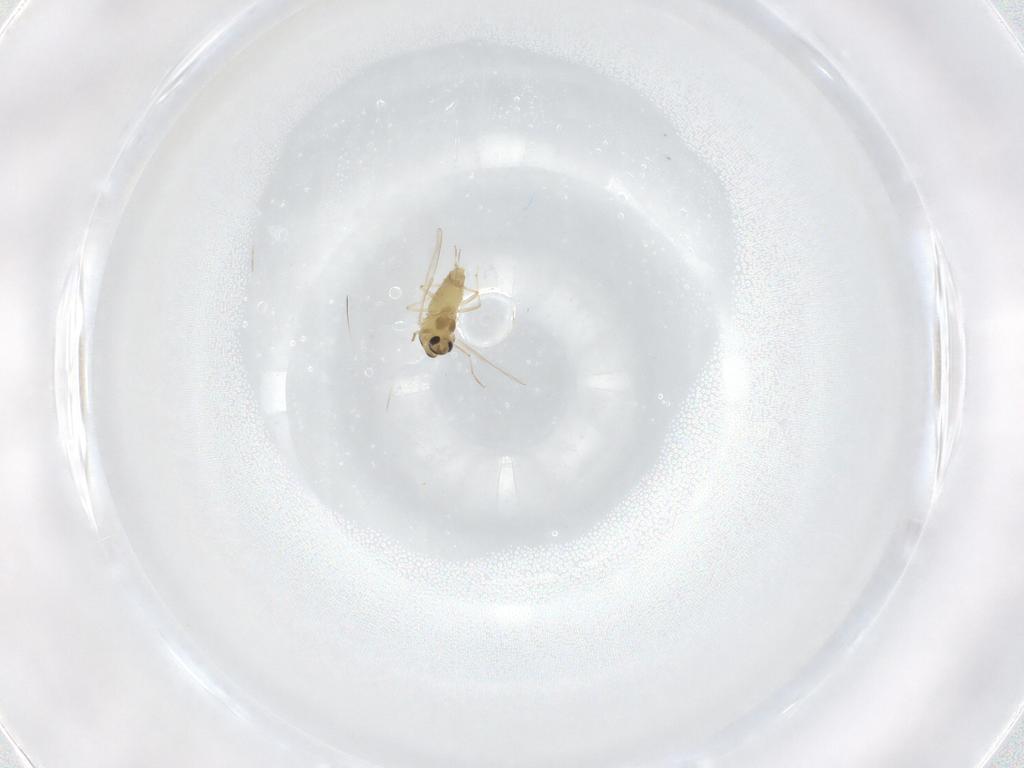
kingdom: Animalia
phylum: Arthropoda
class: Insecta
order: Diptera
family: Chironomidae
